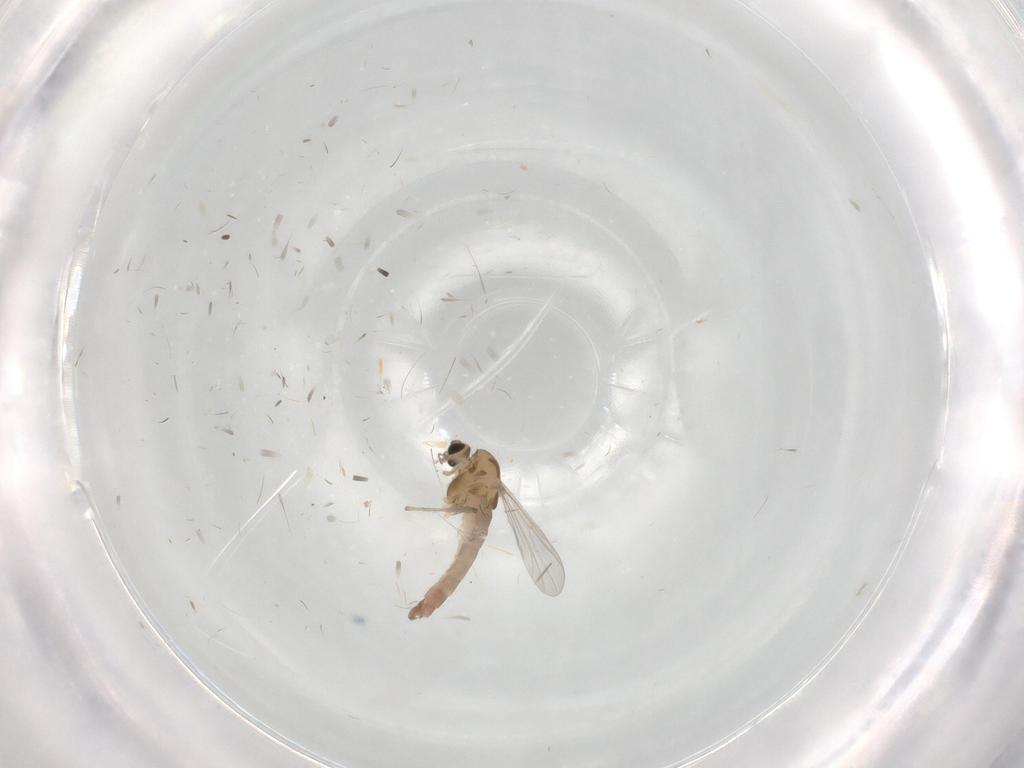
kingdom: Animalia
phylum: Arthropoda
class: Insecta
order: Diptera
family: Chironomidae
